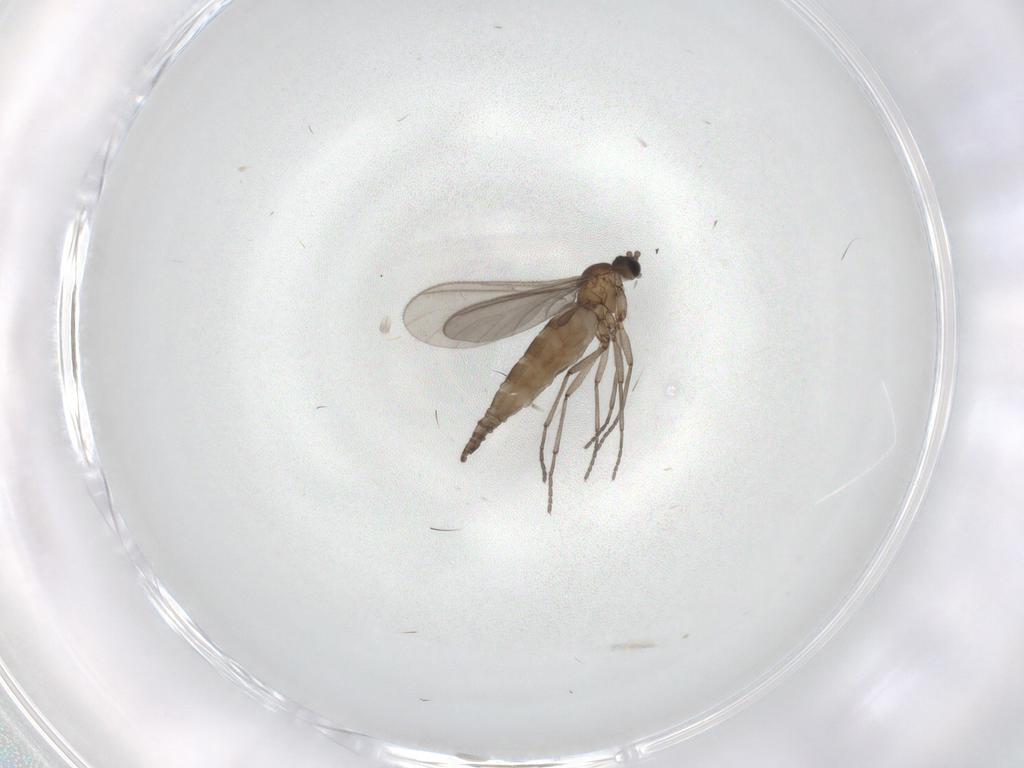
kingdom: Animalia
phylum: Arthropoda
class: Insecta
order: Diptera
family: Sciaridae
